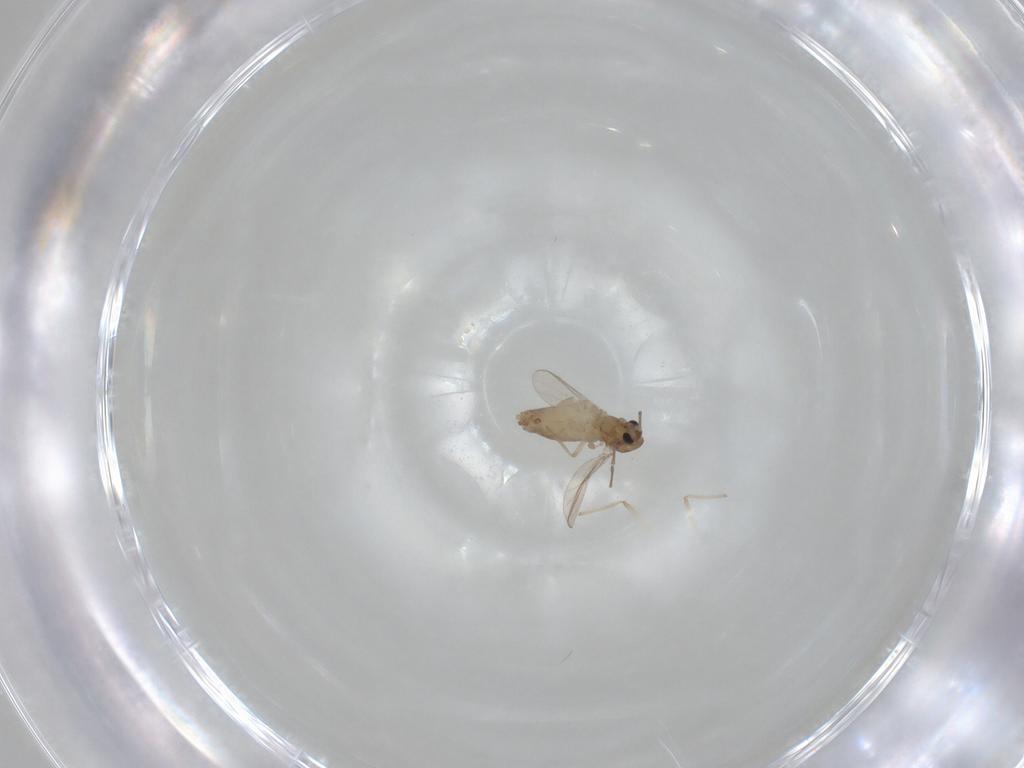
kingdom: Animalia
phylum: Arthropoda
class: Insecta
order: Diptera
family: Chironomidae
